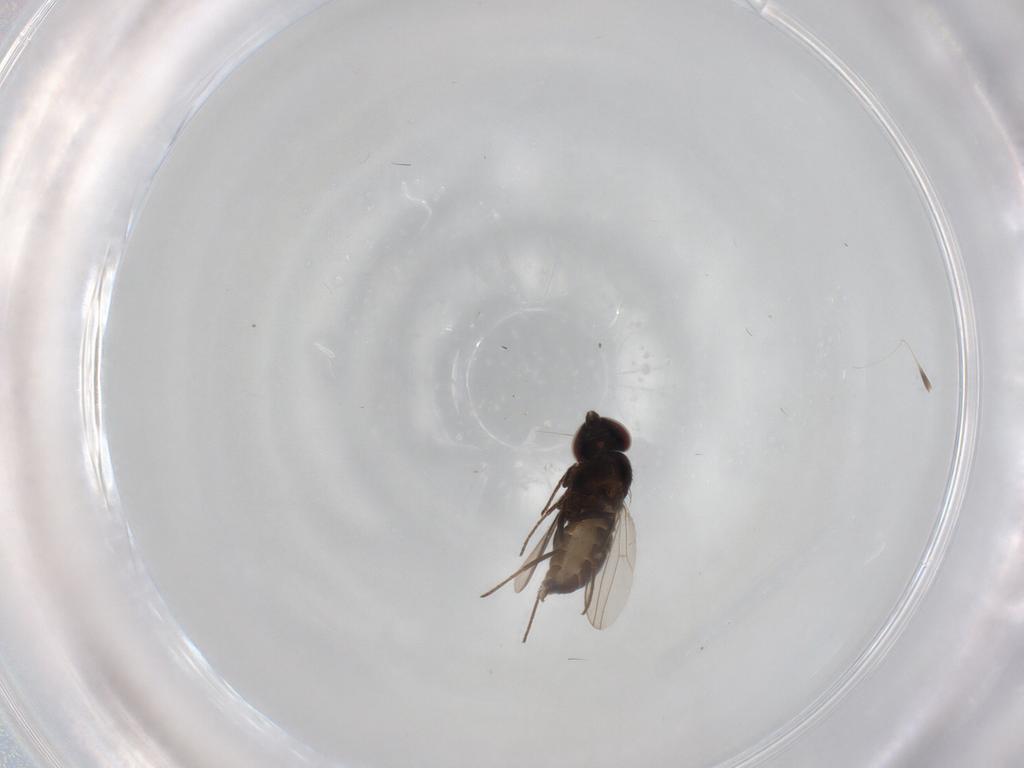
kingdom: Animalia
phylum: Arthropoda
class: Insecta
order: Diptera
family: Dolichopodidae
